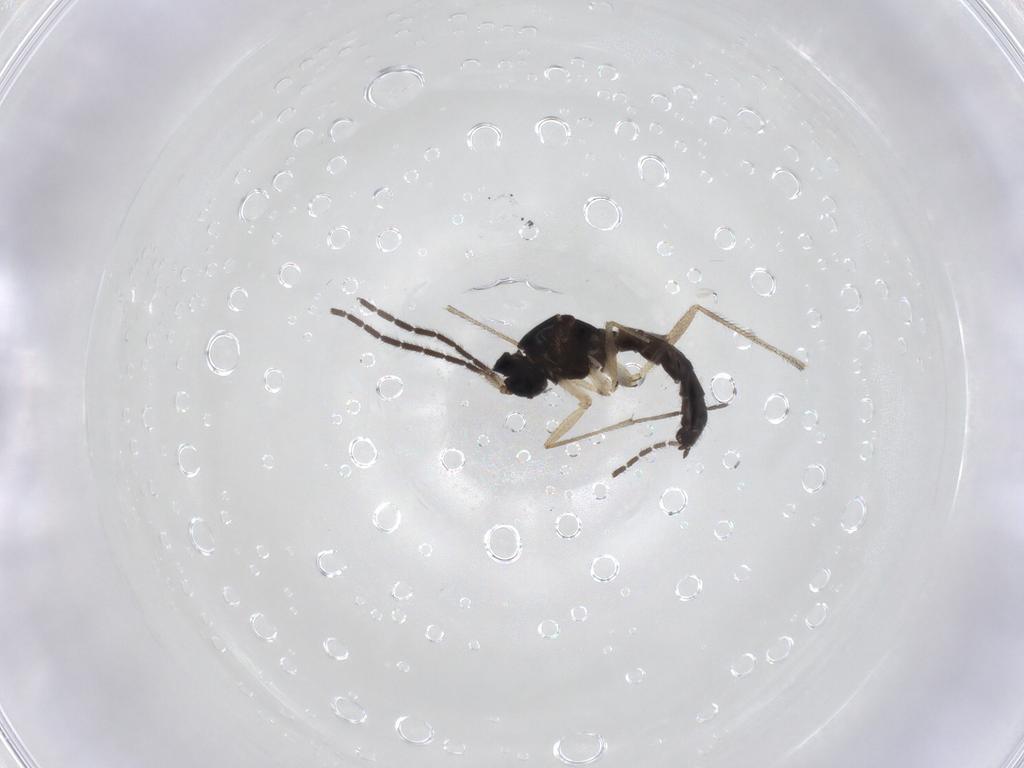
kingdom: Animalia
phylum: Arthropoda
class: Insecta
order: Diptera
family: Sciaridae
